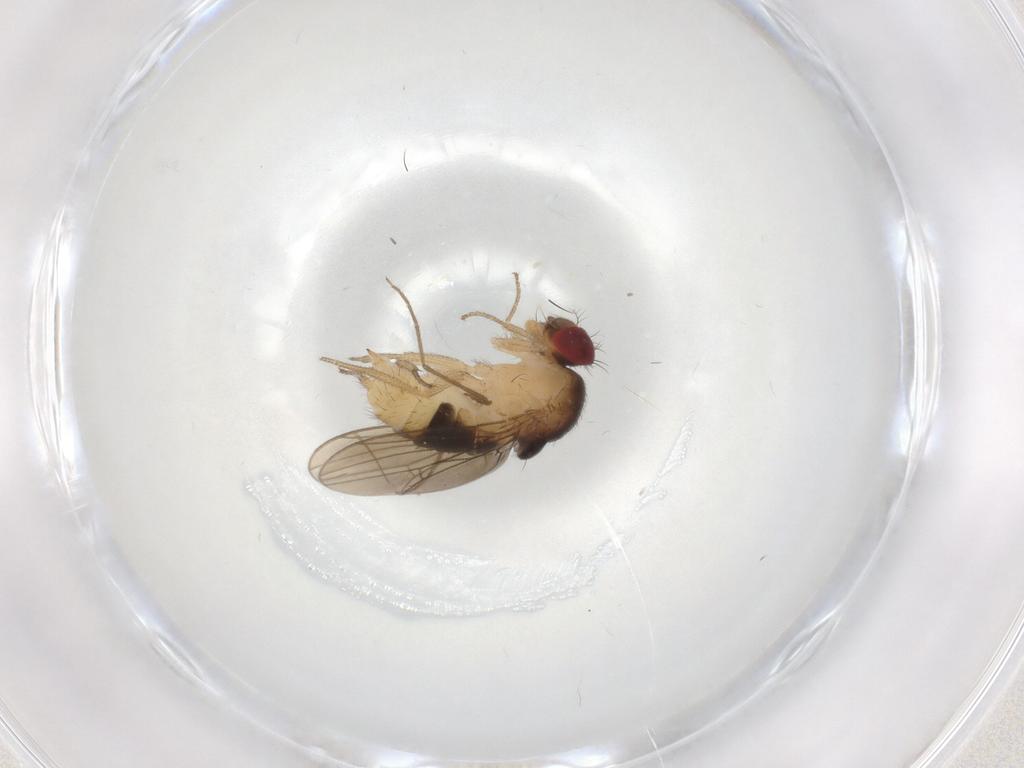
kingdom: Animalia
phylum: Arthropoda
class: Insecta
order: Diptera
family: Drosophilidae
